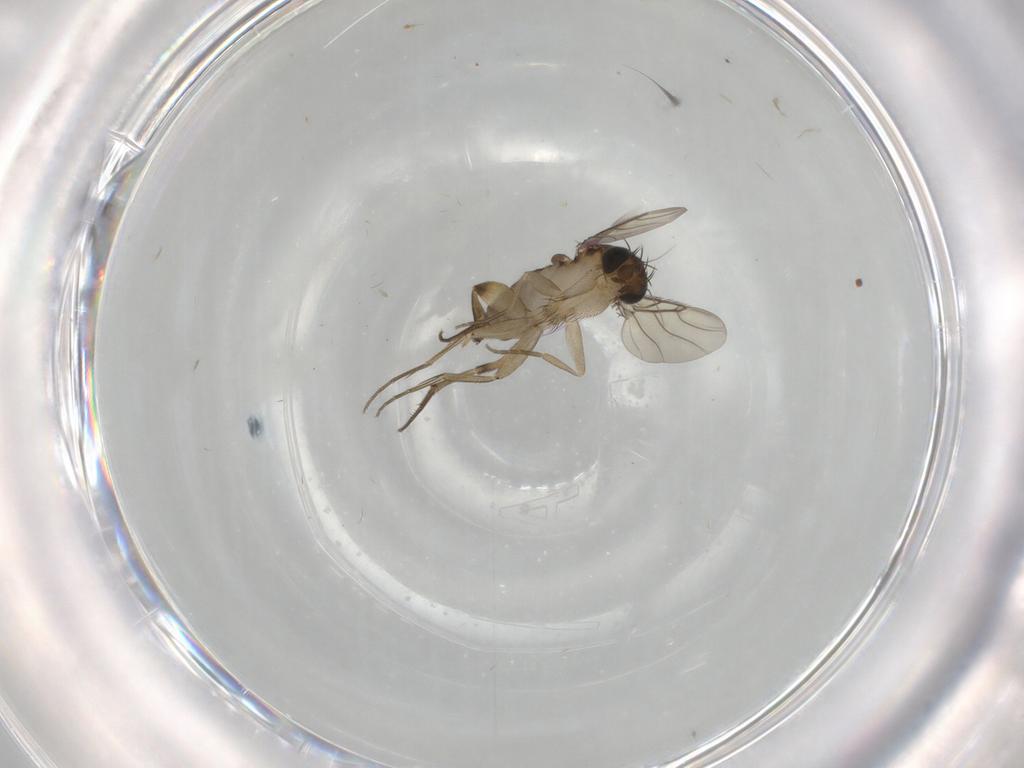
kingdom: Animalia
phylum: Arthropoda
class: Insecta
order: Diptera
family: Phoridae
